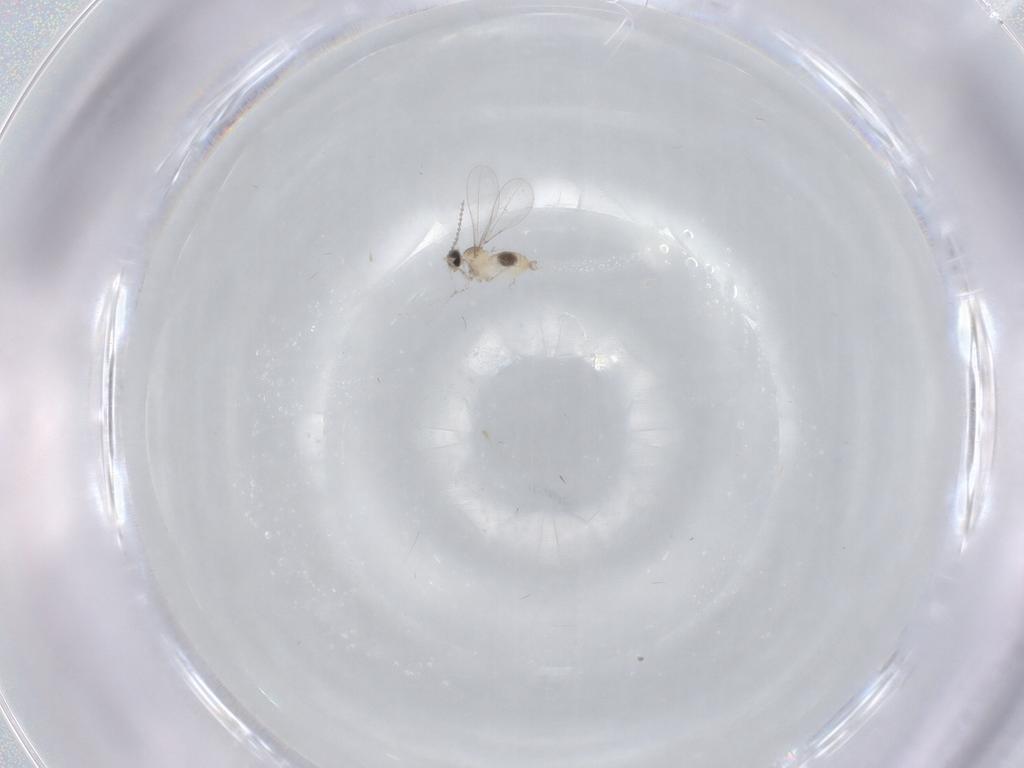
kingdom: Animalia
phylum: Arthropoda
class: Insecta
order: Diptera
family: Cecidomyiidae
